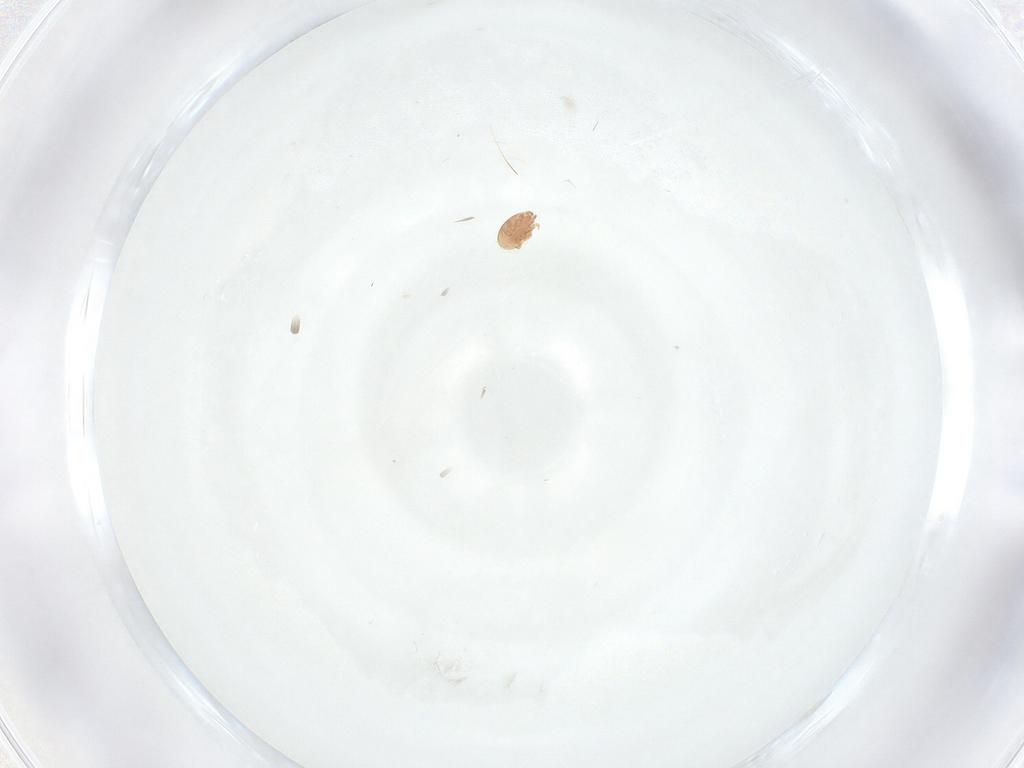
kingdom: Animalia
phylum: Arthropoda
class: Arachnida
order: Mesostigmata
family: Trematuridae
